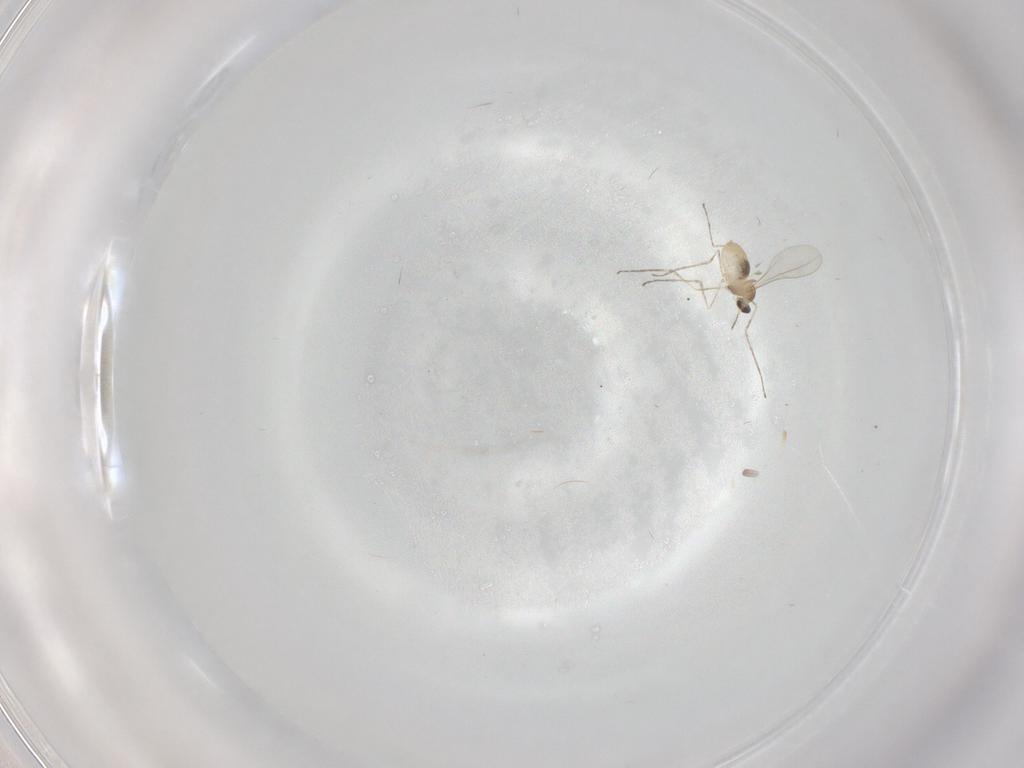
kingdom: Animalia
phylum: Arthropoda
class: Insecta
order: Diptera
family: Cecidomyiidae
